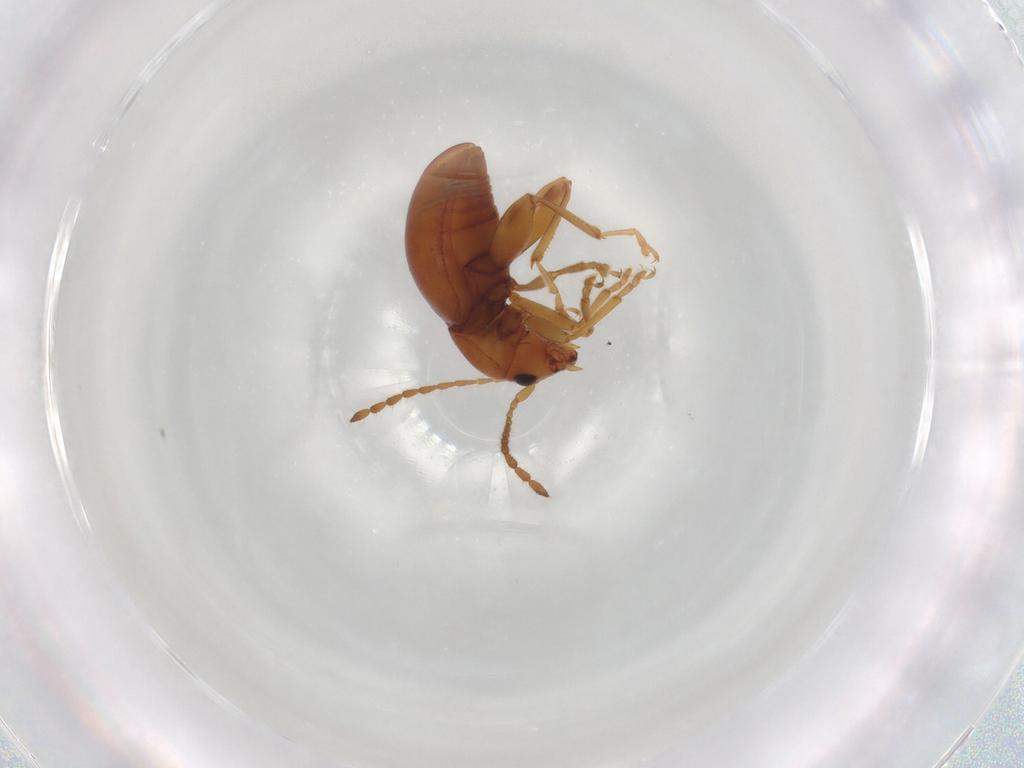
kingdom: Animalia
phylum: Arthropoda
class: Insecta
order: Coleoptera
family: Chrysomelidae
